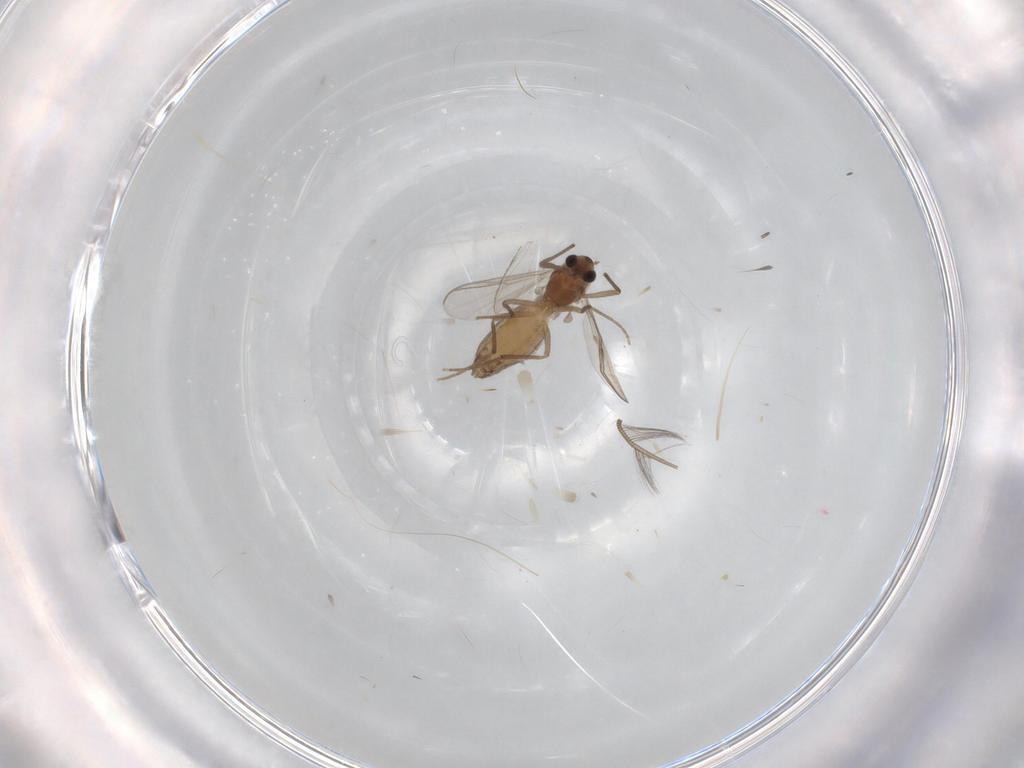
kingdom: Animalia
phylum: Arthropoda
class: Insecta
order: Diptera
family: Chironomidae
